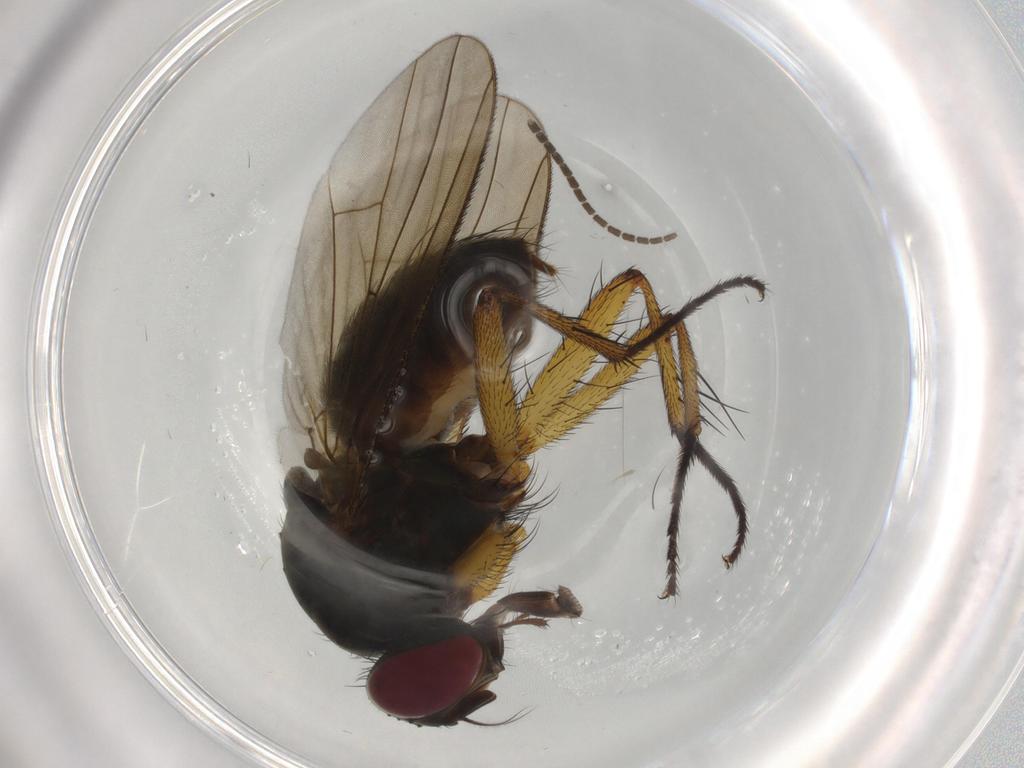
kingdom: Animalia
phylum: Arthropoda
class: Insecta
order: Diptera
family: Muscidae
